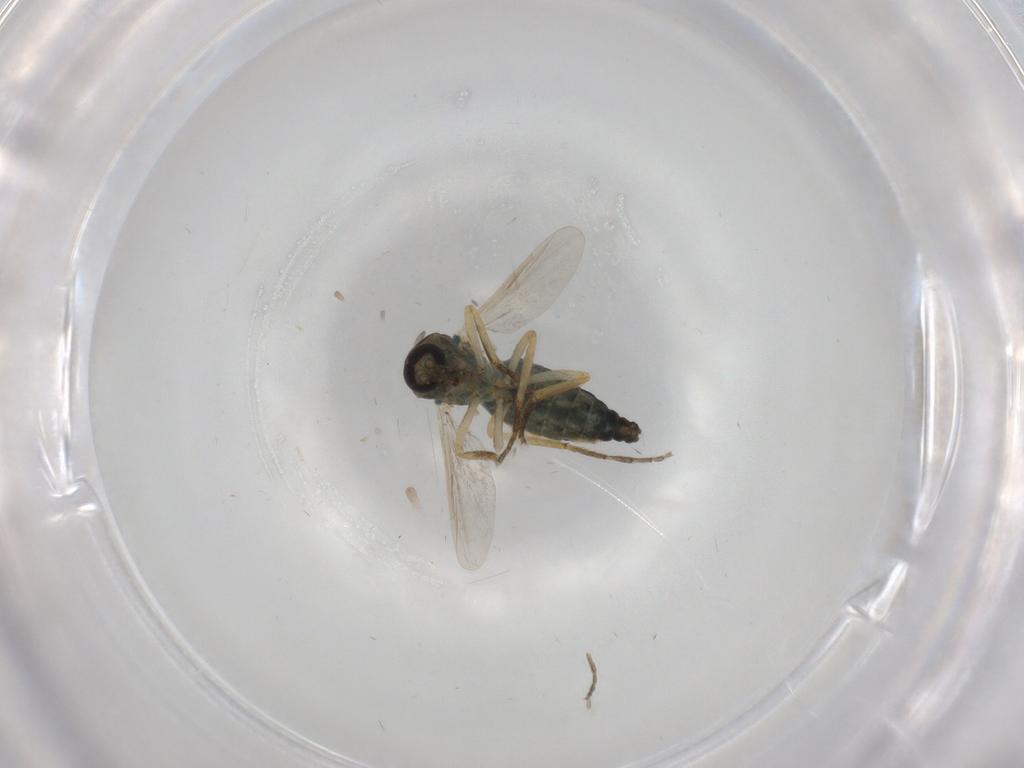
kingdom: Animalia
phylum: Arthropoda
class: Insecta
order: Diptera
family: Ceratopogonidae
